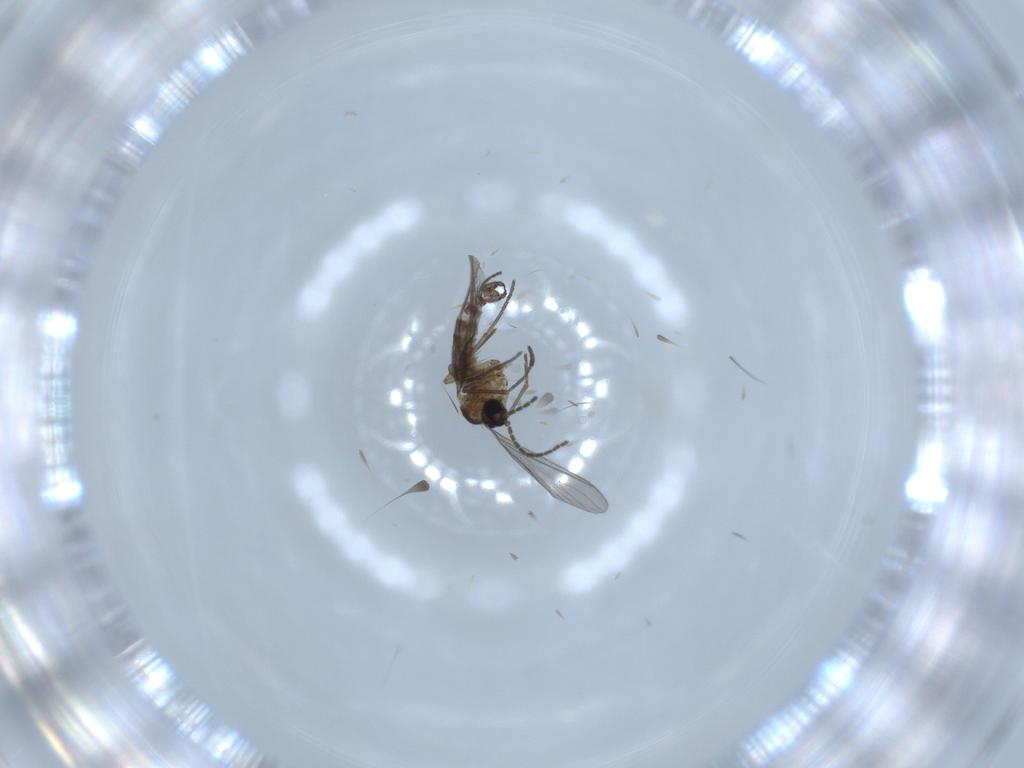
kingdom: Animalia
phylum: Arthropoda
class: Insecta
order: Diptera
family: Sciaridae
